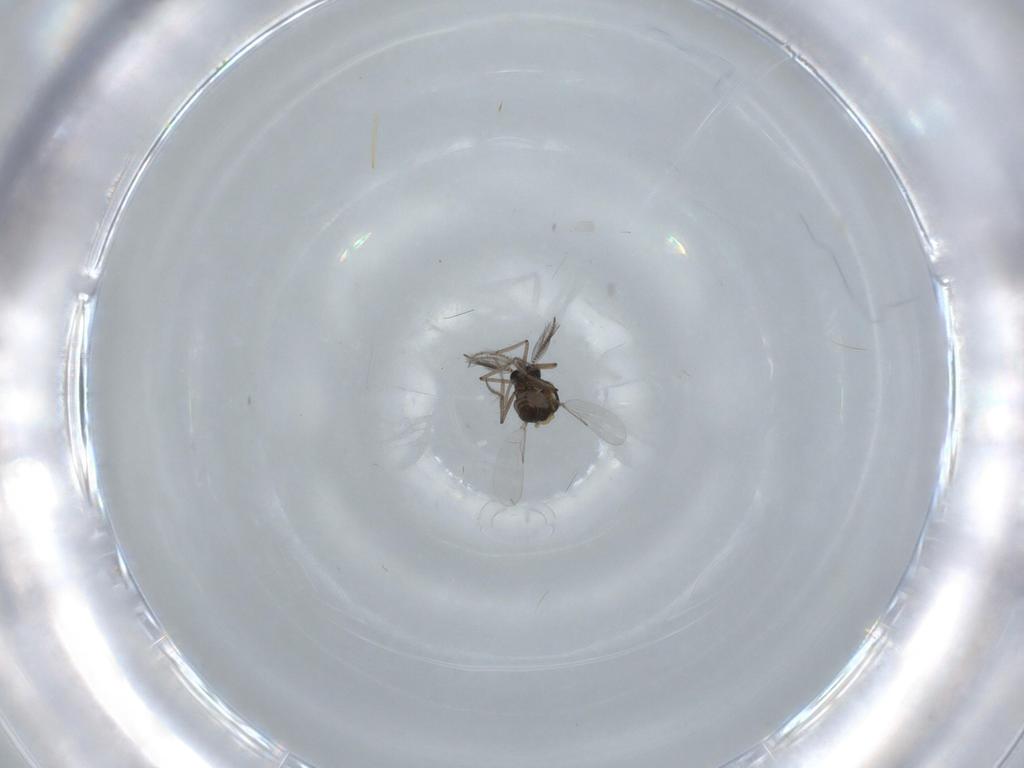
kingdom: Animalia
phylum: Arthropoda
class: Insecta
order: Diptera
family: Ceratopogonidae
